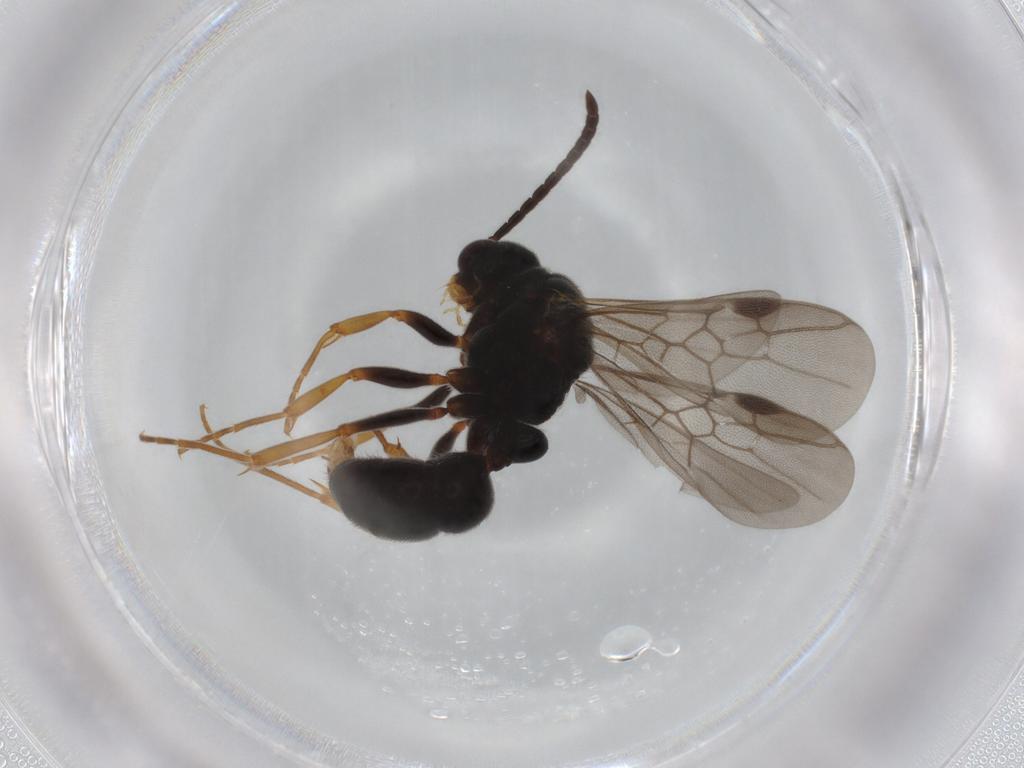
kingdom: Animalia
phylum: Arthropoda
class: Insecta
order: Hymenoptera
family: Formicidae
